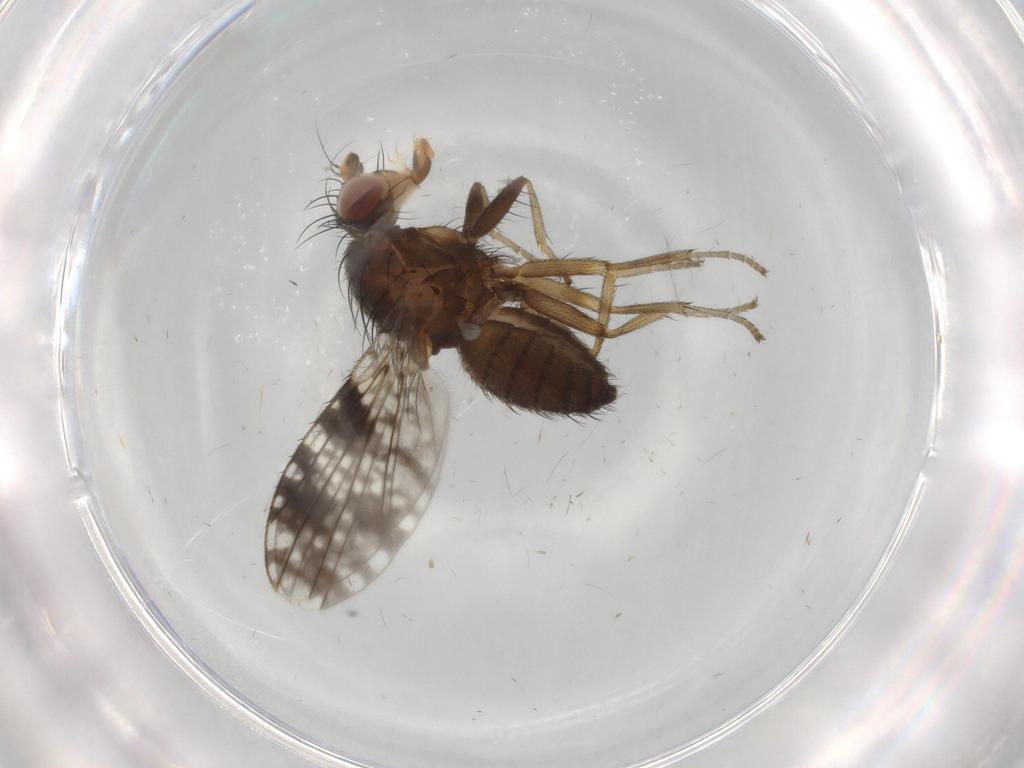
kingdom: Animalia
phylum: Arthropoda
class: Insecta
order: Diptera
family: Tephritidae
